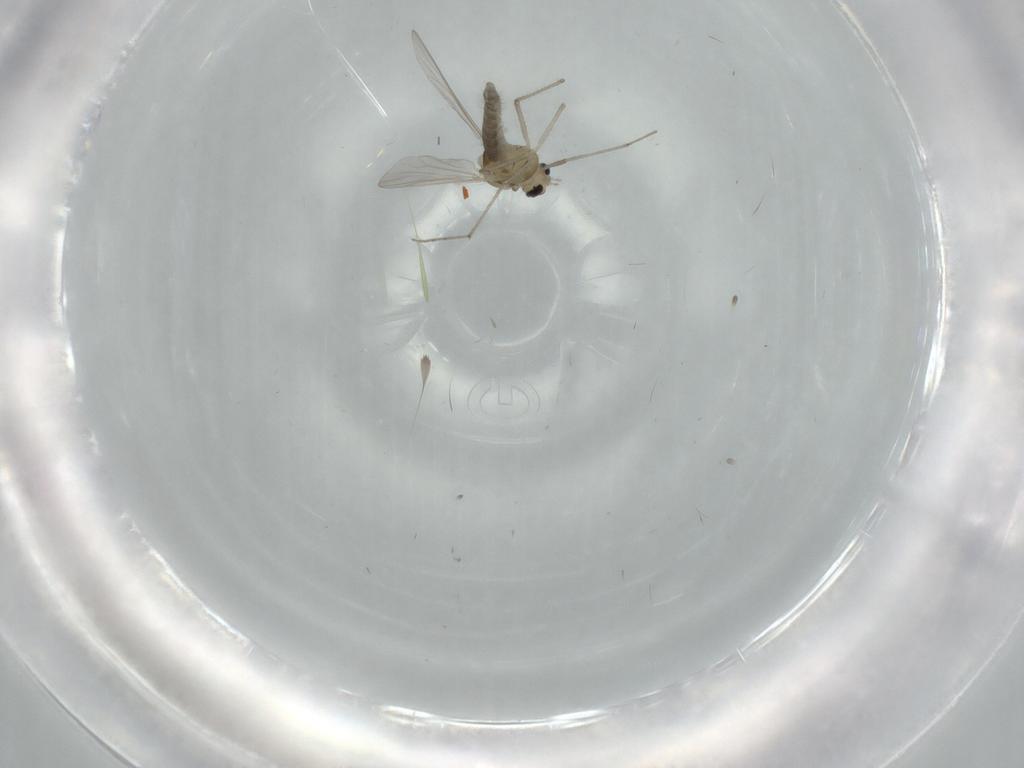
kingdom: Animalia
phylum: Arthropoda
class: Insecta
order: Diptera
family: Chironomidae
